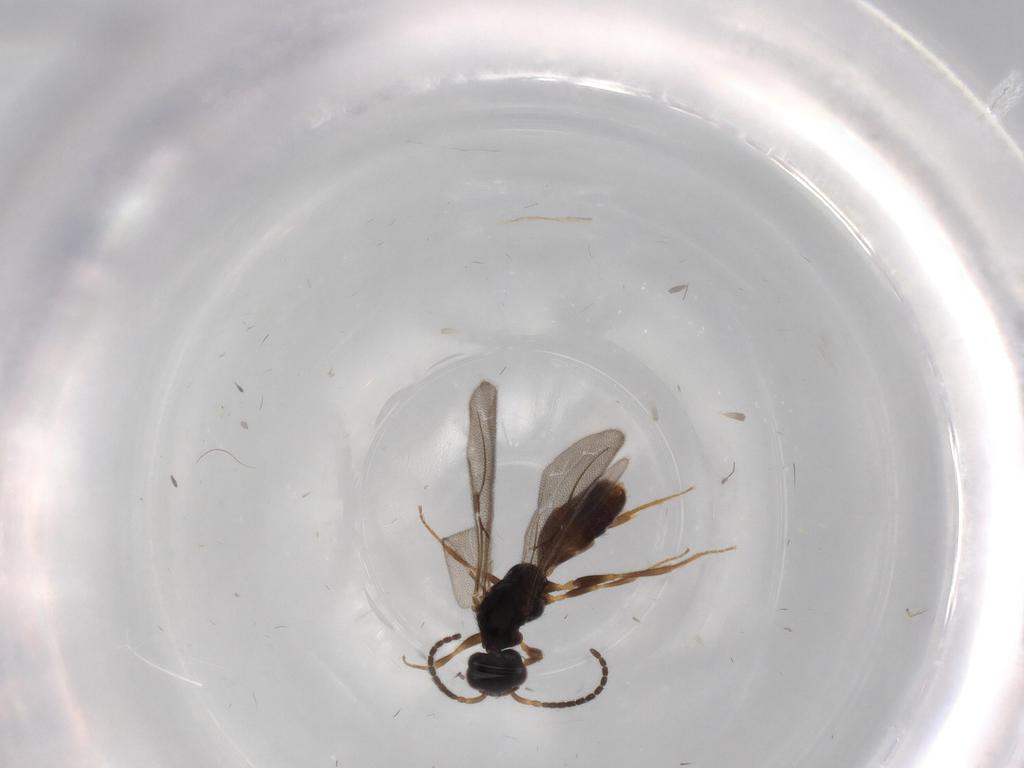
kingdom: Animalia
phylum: Arthropoda
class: Insecta
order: Hymenoptera
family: Bethylidae
